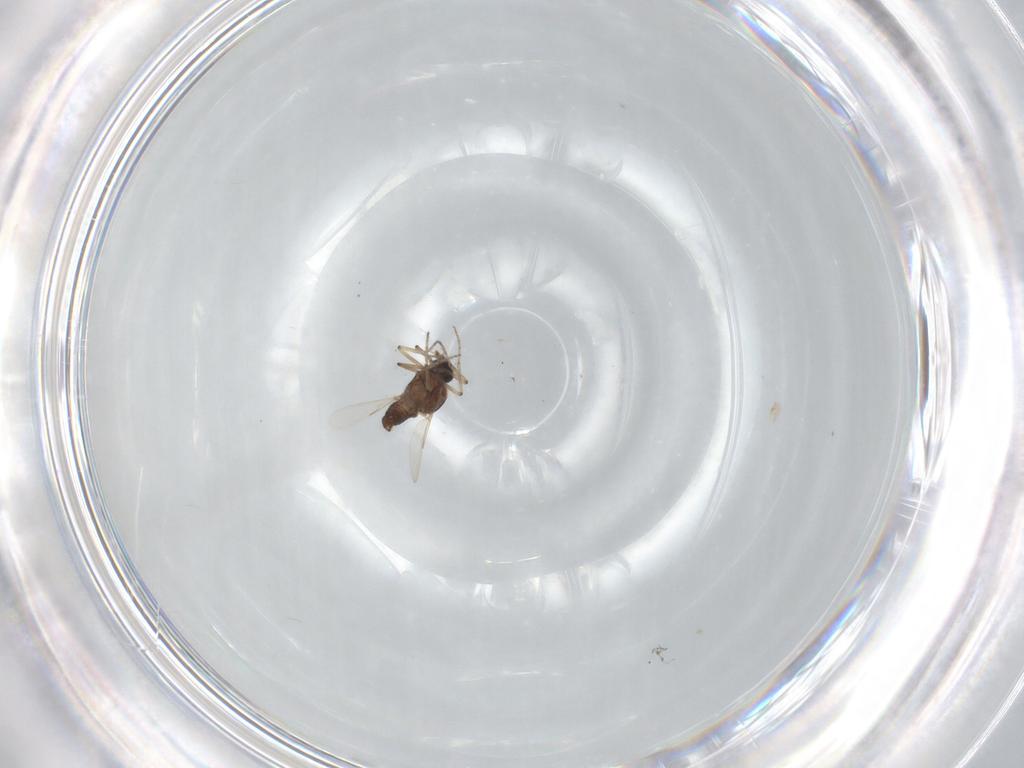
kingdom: Animalia
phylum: Arthropoda
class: Insecta
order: Diptera
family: Ceratopogonidae
